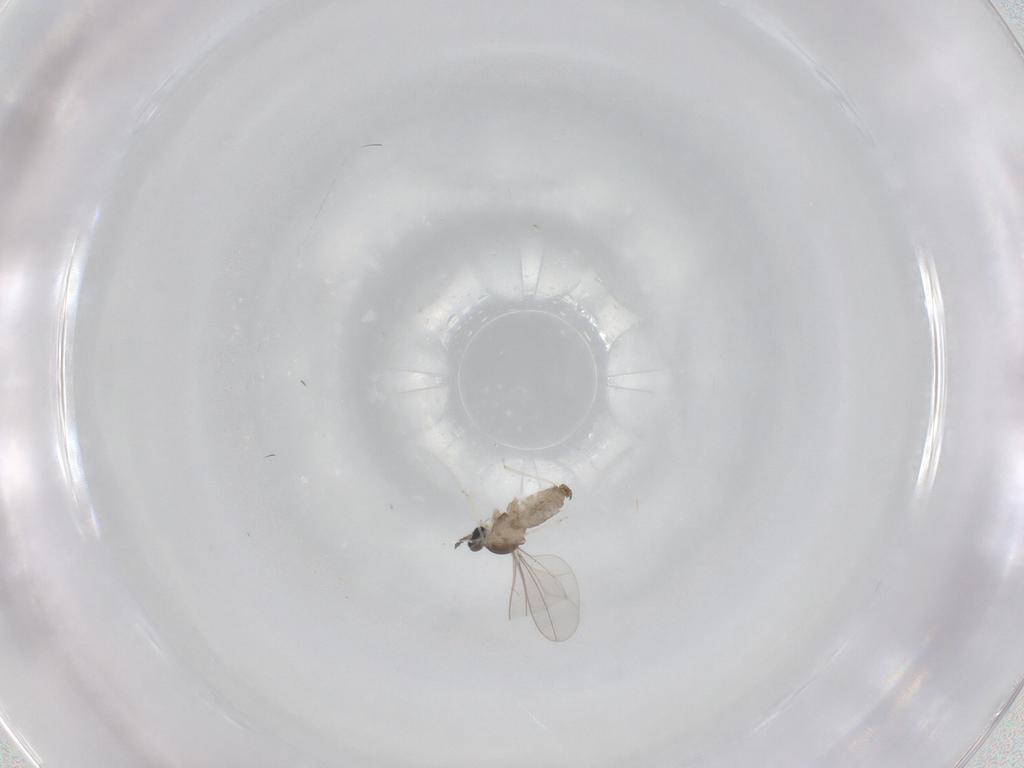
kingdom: Animalia
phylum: Arthropoda
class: Insecta
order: Diptera
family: Cecidomyiidae
